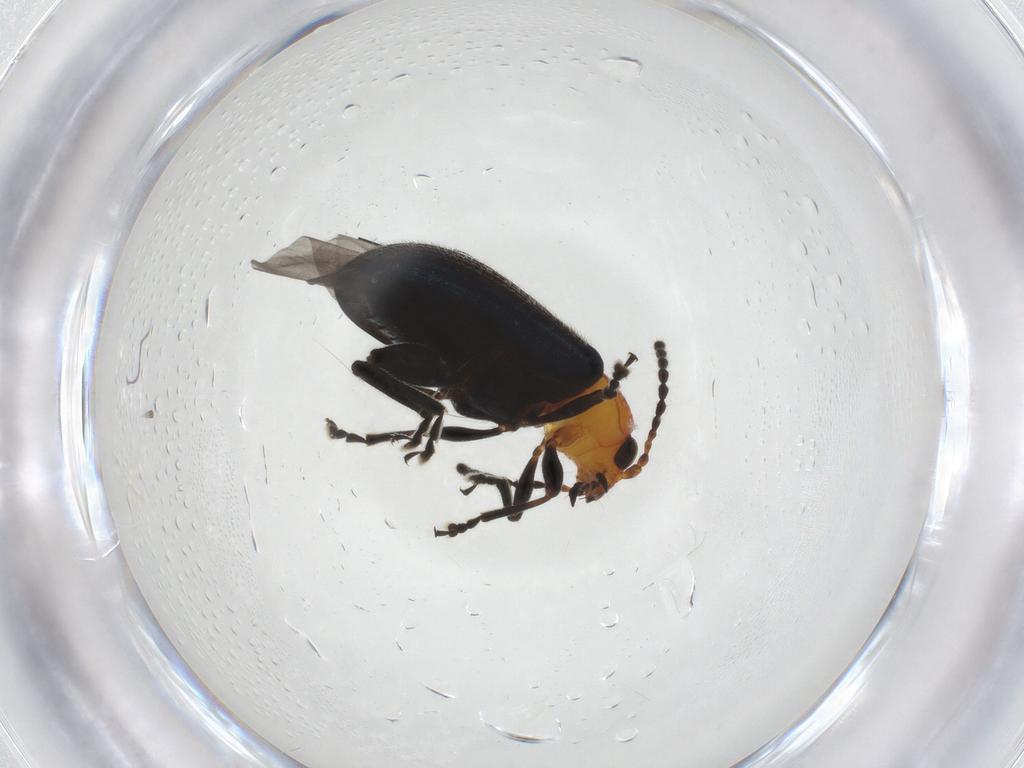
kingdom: Animalia
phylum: Arthropoda
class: Insecta
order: Coleoptera
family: Chrysomelidae
